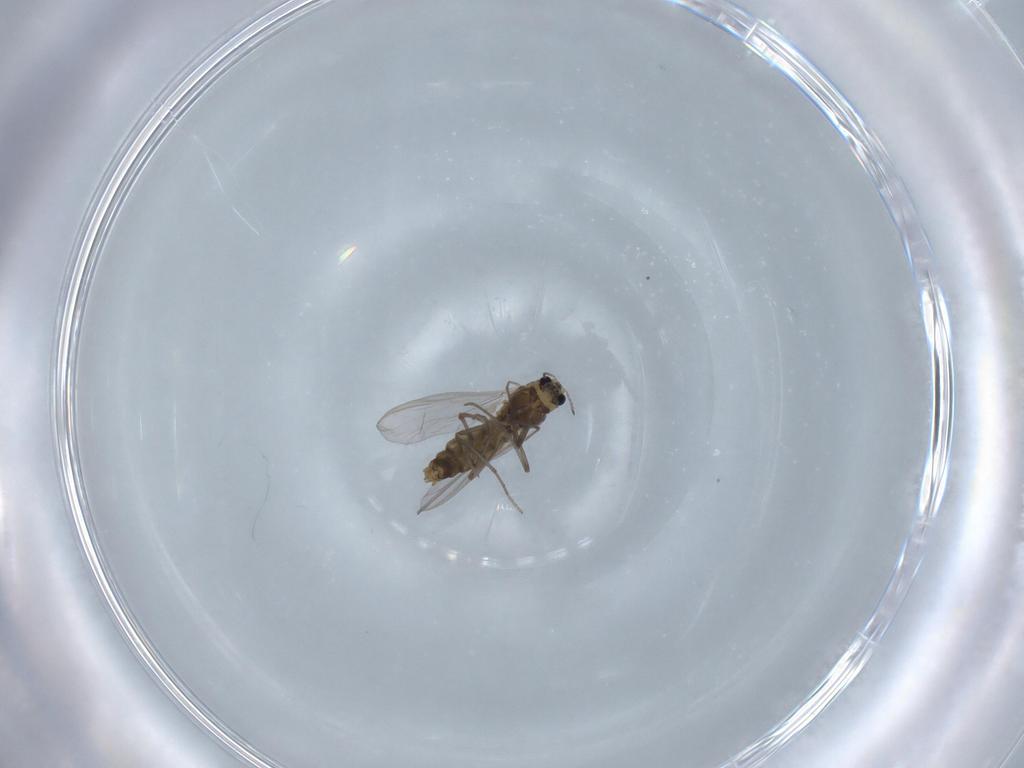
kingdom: Animalia
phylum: Arthropoda
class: Insecta
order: Diptera
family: Chironomidae
